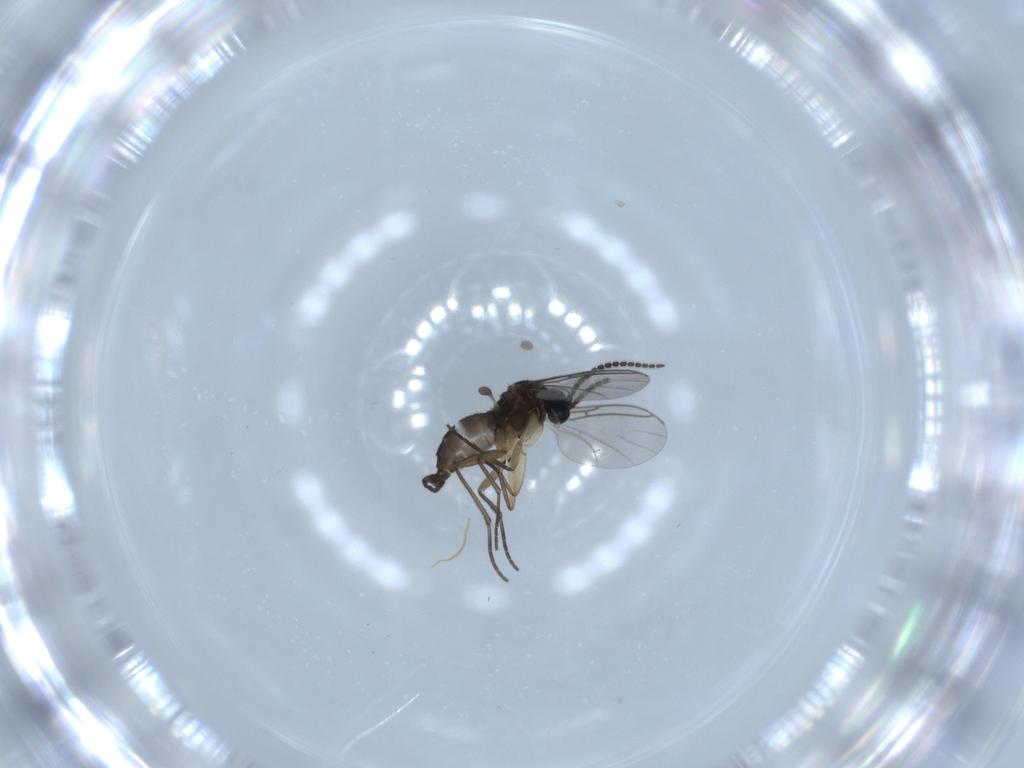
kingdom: Animalia
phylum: Arthropoda
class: Insecta
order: Diptera
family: Sciaridae
